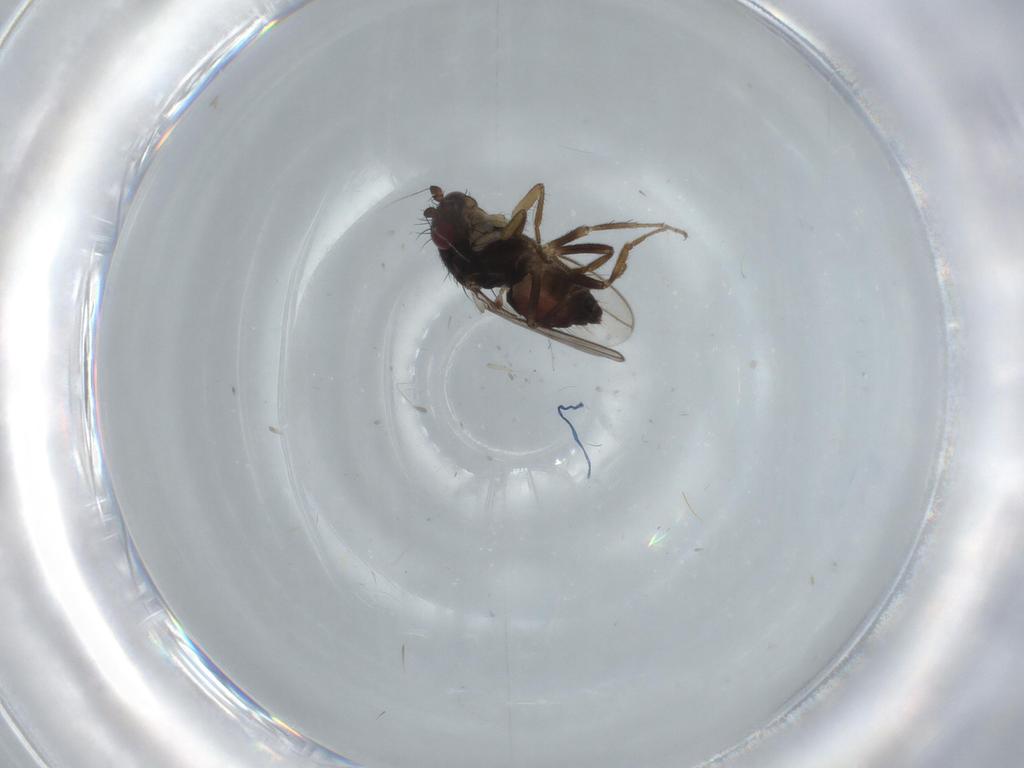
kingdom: Animalia
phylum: Arthropoda
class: Insecta
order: Diptera
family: Sphaeroceridae
